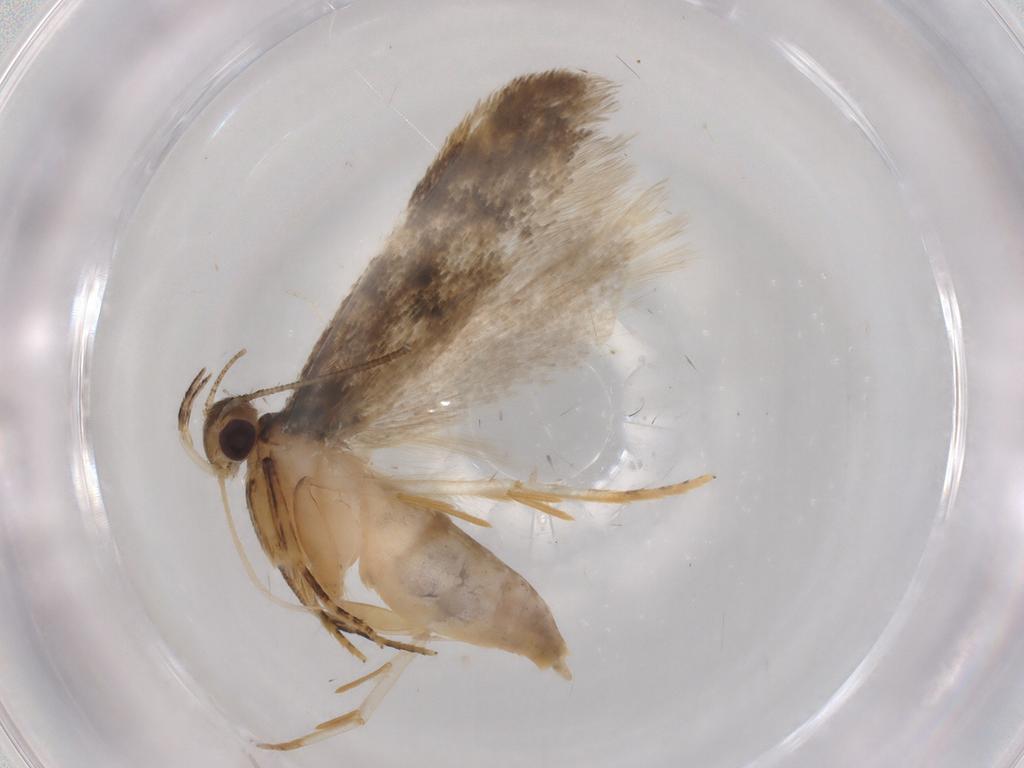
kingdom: Animalia
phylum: Arthropoda
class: Insecta
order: Lepidoptera
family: Autostichidae
